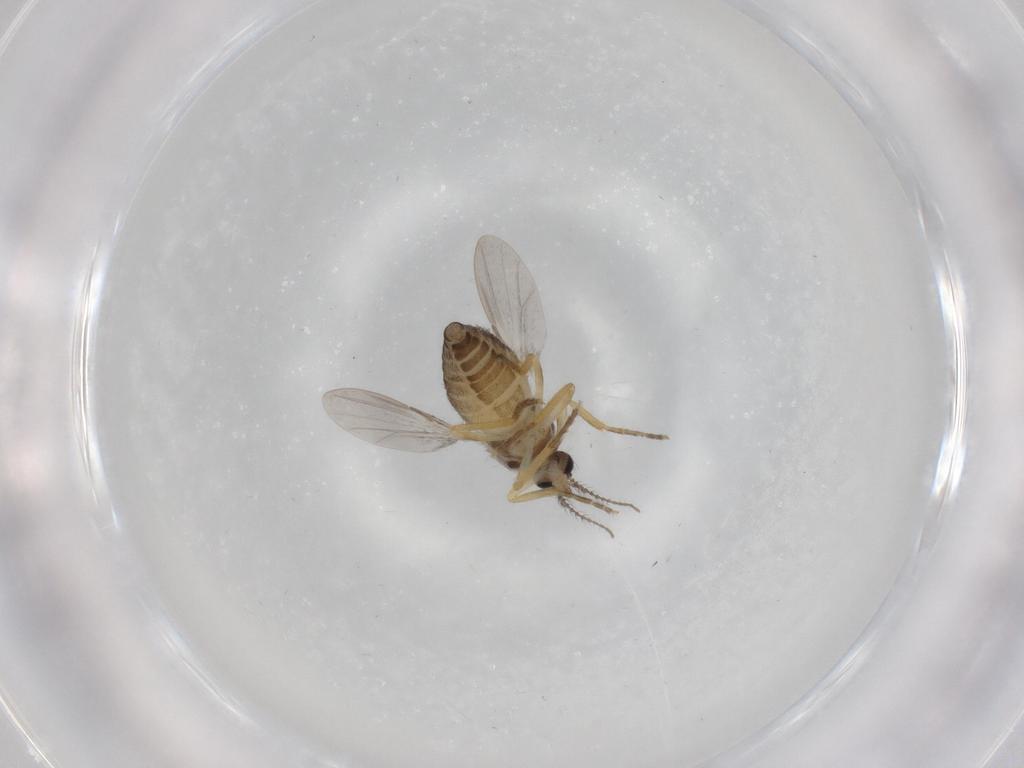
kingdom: Animalia
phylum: Arthropoda
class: Insecta
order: Diptera
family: Ceratopogonidae
